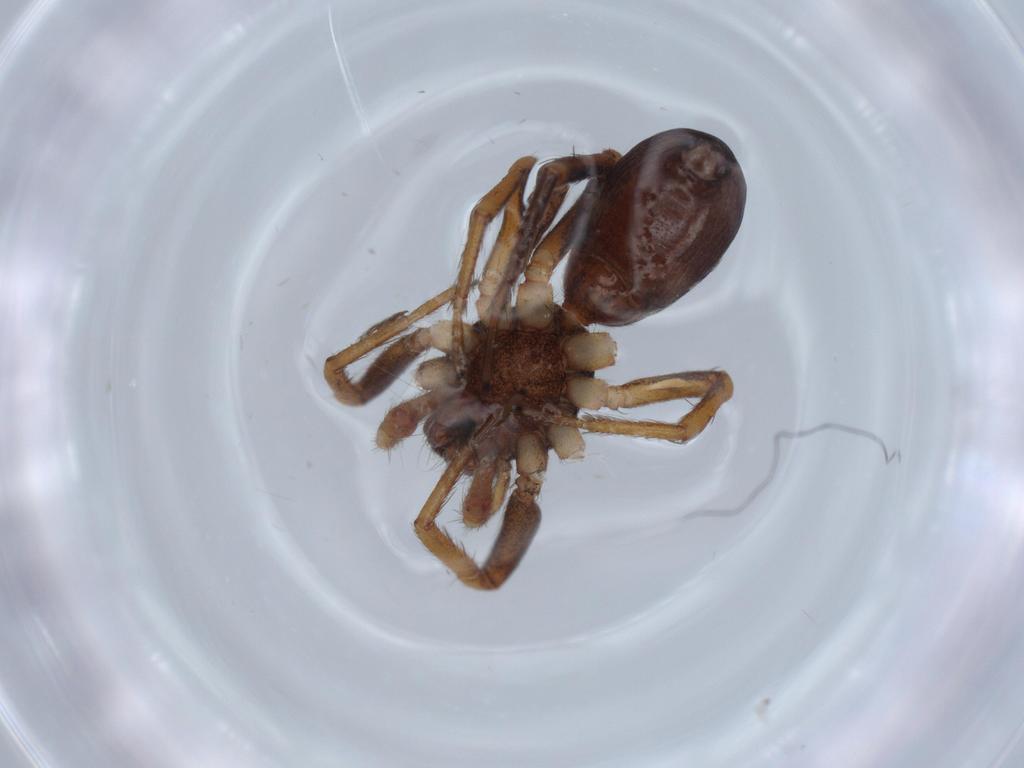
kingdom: Animalia
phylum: Arthropoda
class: Arachnida
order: Araneae
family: Corinnidae
